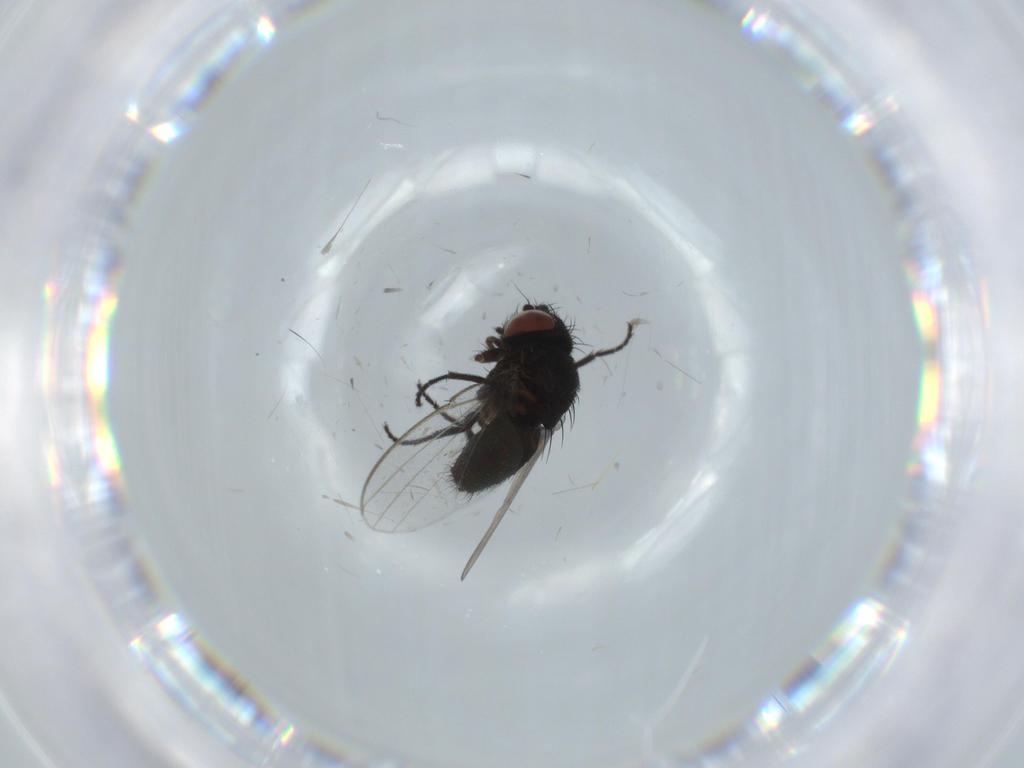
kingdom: Animalia
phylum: Arthropoda
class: Insecta
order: Diptera
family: Milichiidae
